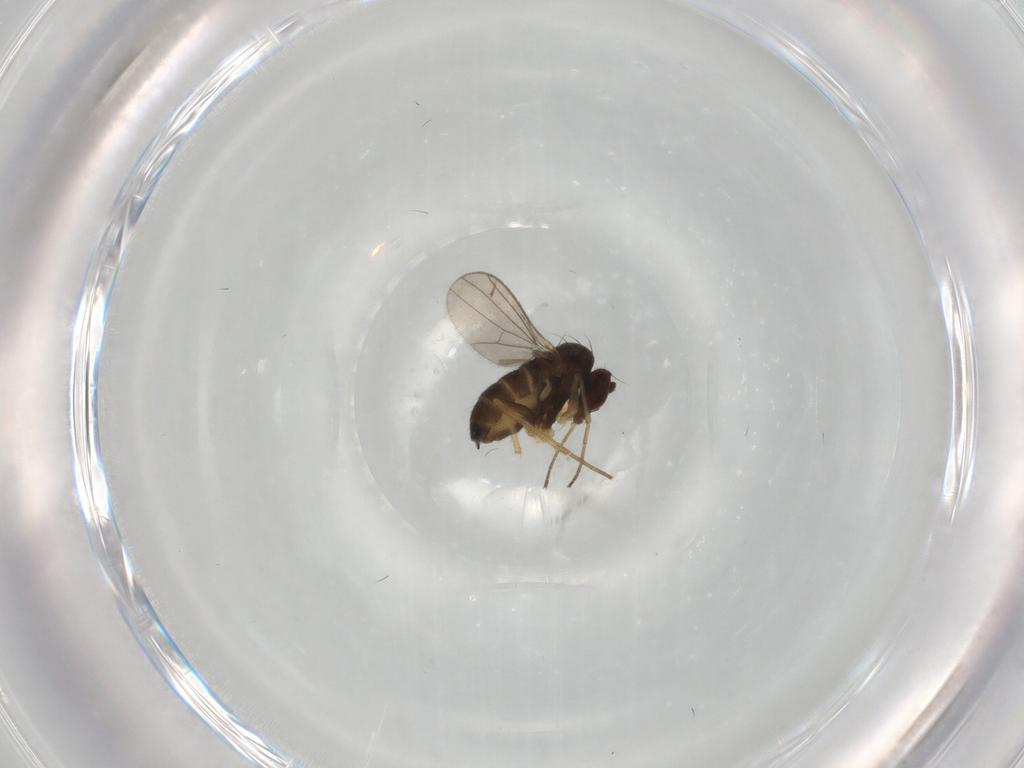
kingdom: Animalia
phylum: Arthropoda
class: Insecta
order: Diptera
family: Dolichopodidae
